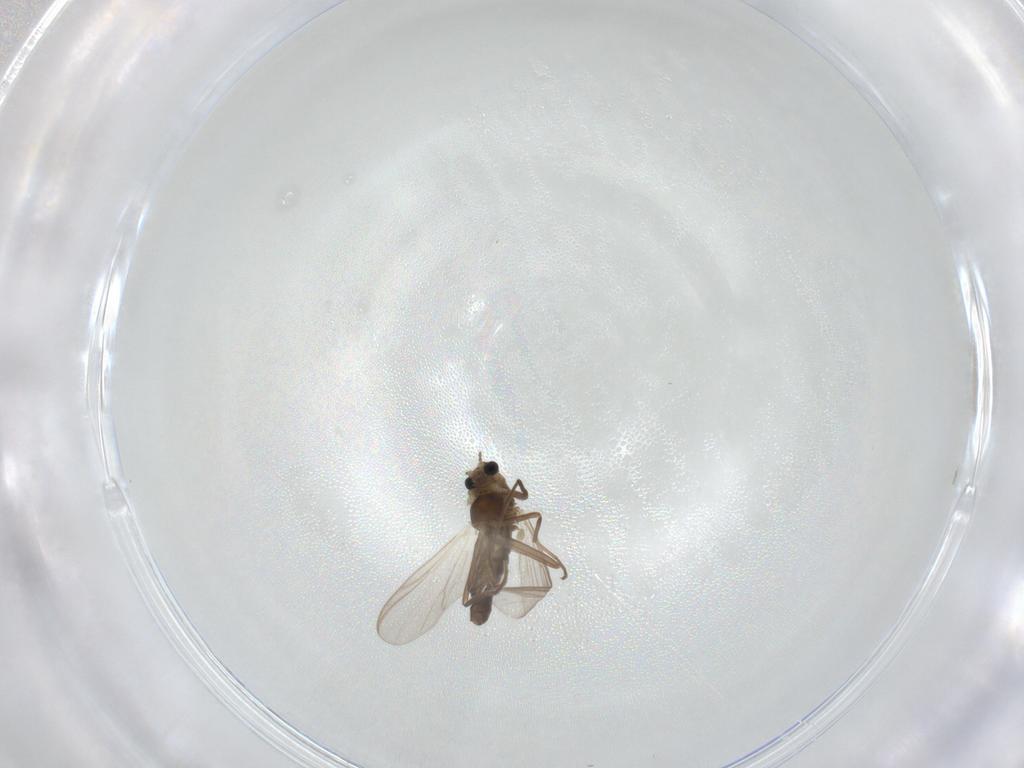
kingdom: Animalia
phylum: Arthropoda
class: Insecta
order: Diptera
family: Chironomidae
